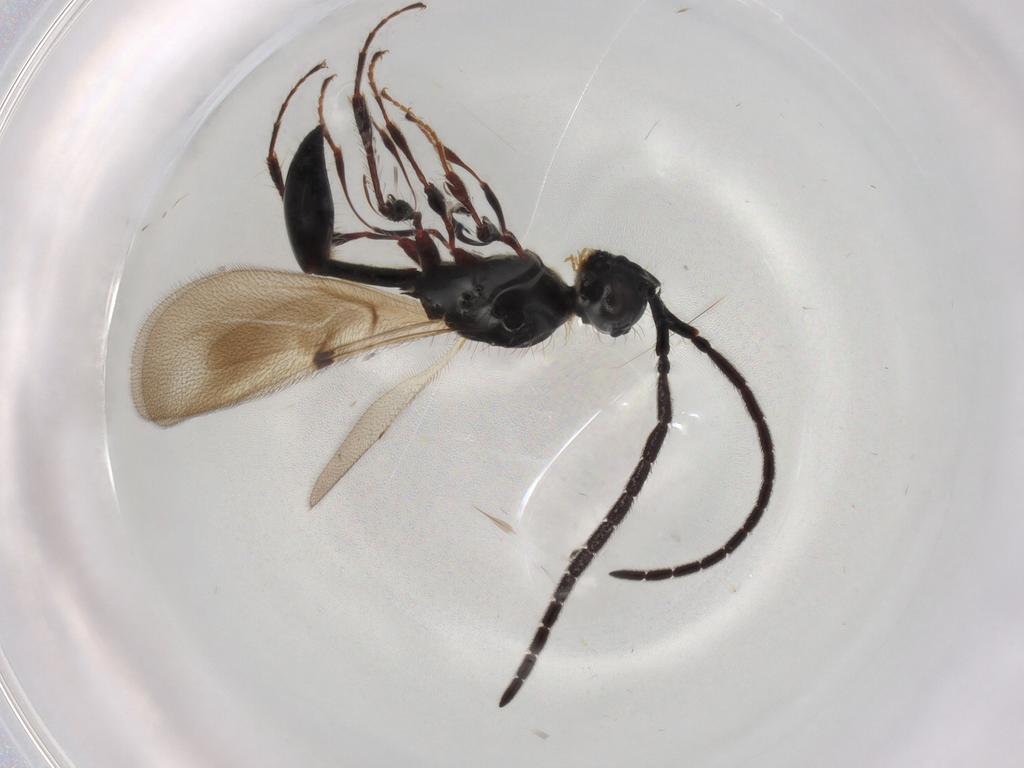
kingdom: Animalia
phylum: Arthropoda
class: Insecta
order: Hymenoptera
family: Diapriidae
